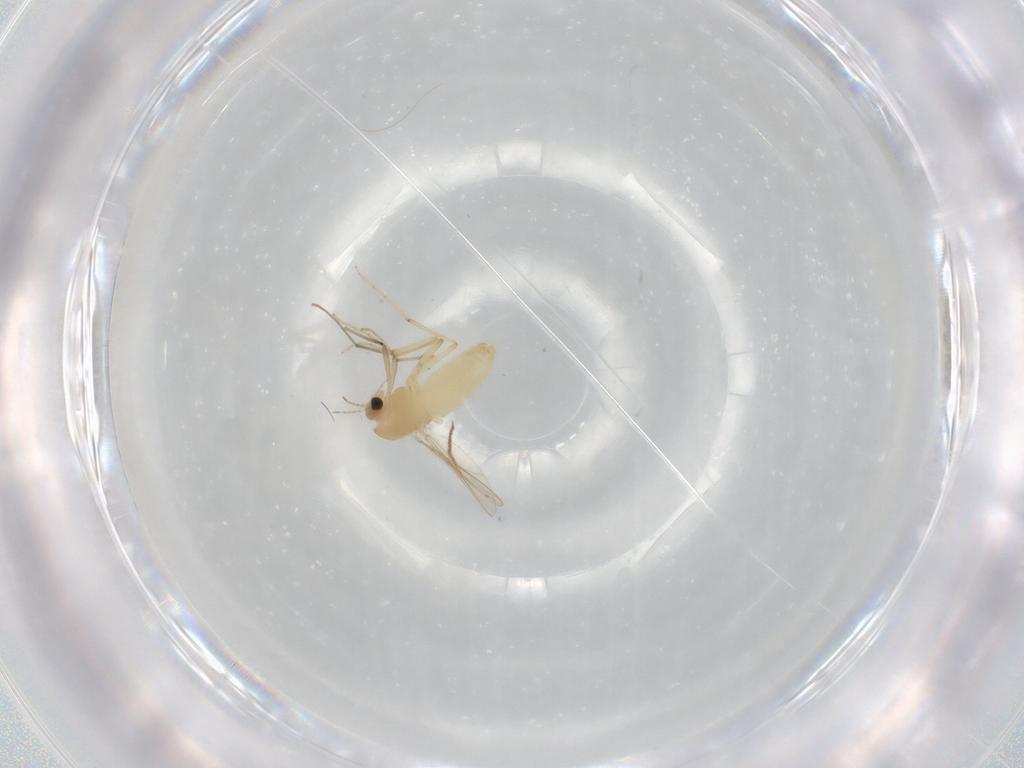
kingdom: Animalia
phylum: Arthropoda
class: Insecta
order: Diptera
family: Chironomidae
